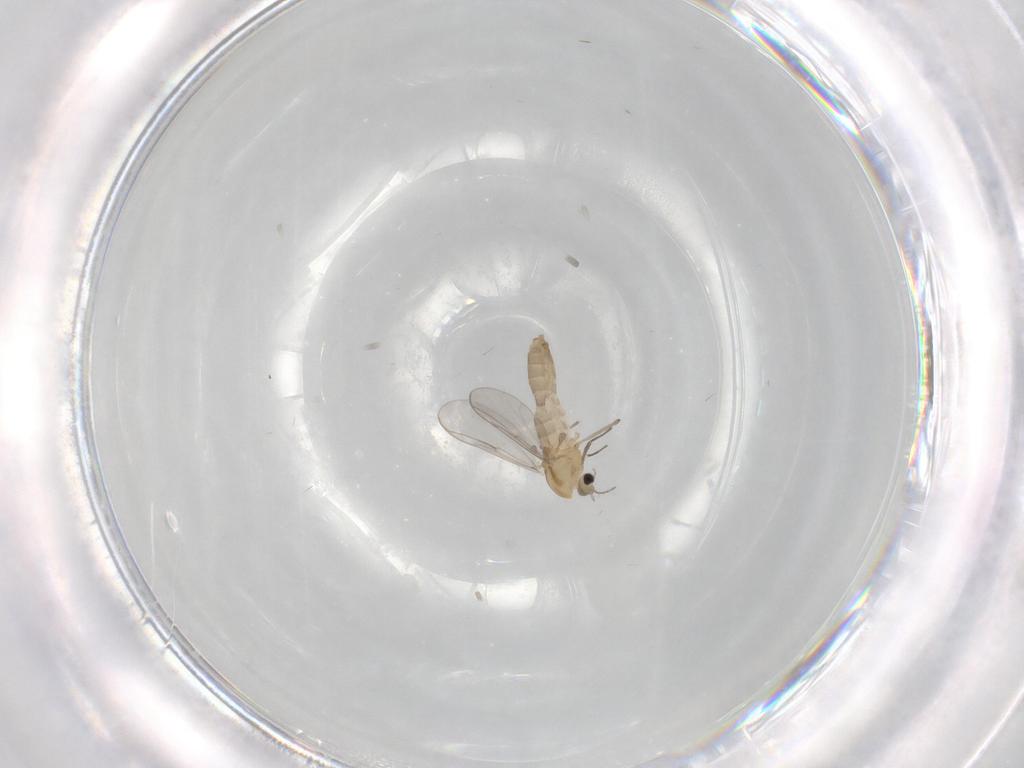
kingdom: Animalia
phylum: Arthropoda
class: Insecta
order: Diptera
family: Chironomidae
